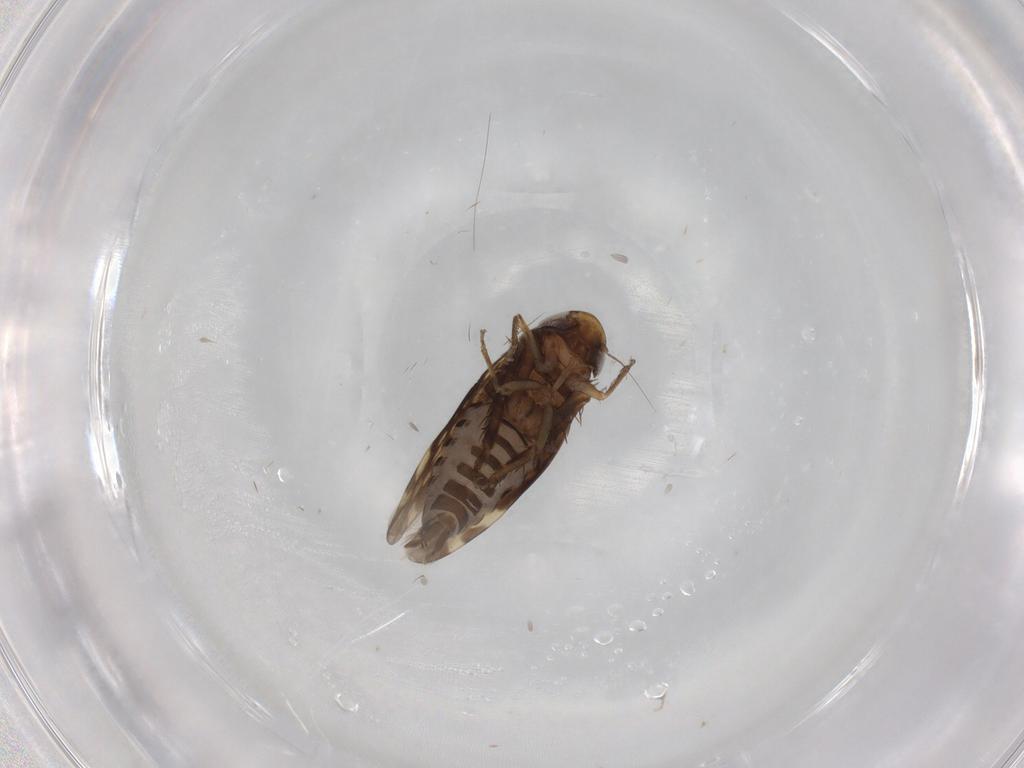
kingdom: Animalia
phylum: Arthropoda
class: Insecta
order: Hemiptera
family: Cicadellidae
